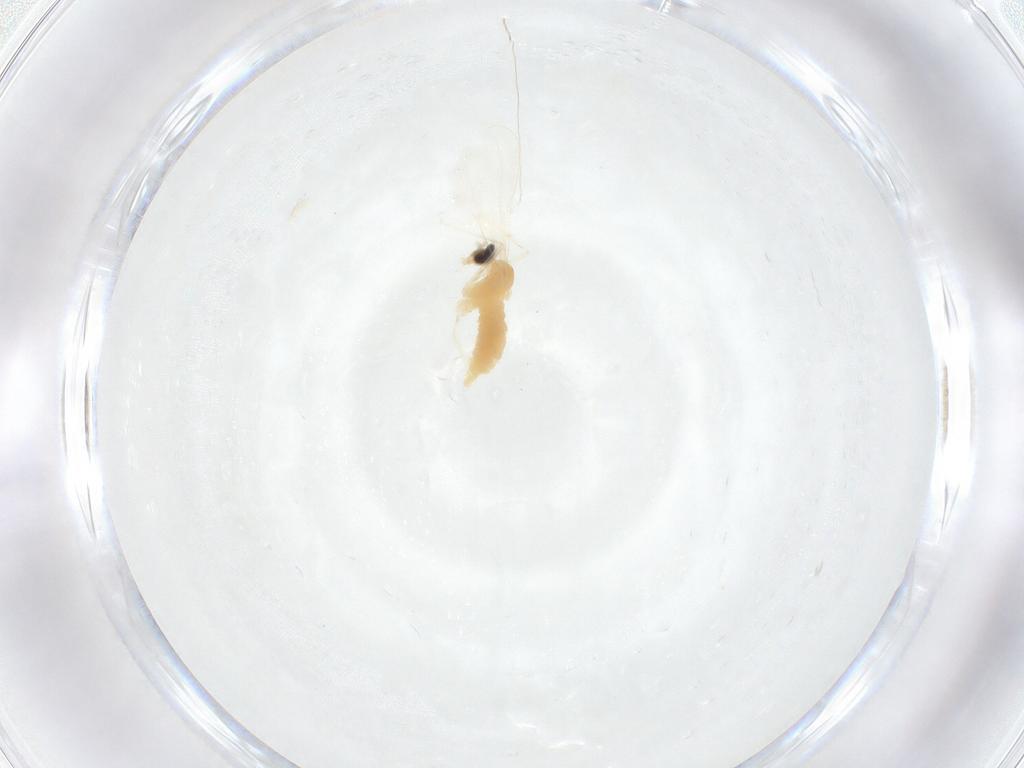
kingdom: Animalia
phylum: Arthropoda
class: Insecta
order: Diptera
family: Cecidomyiidae
